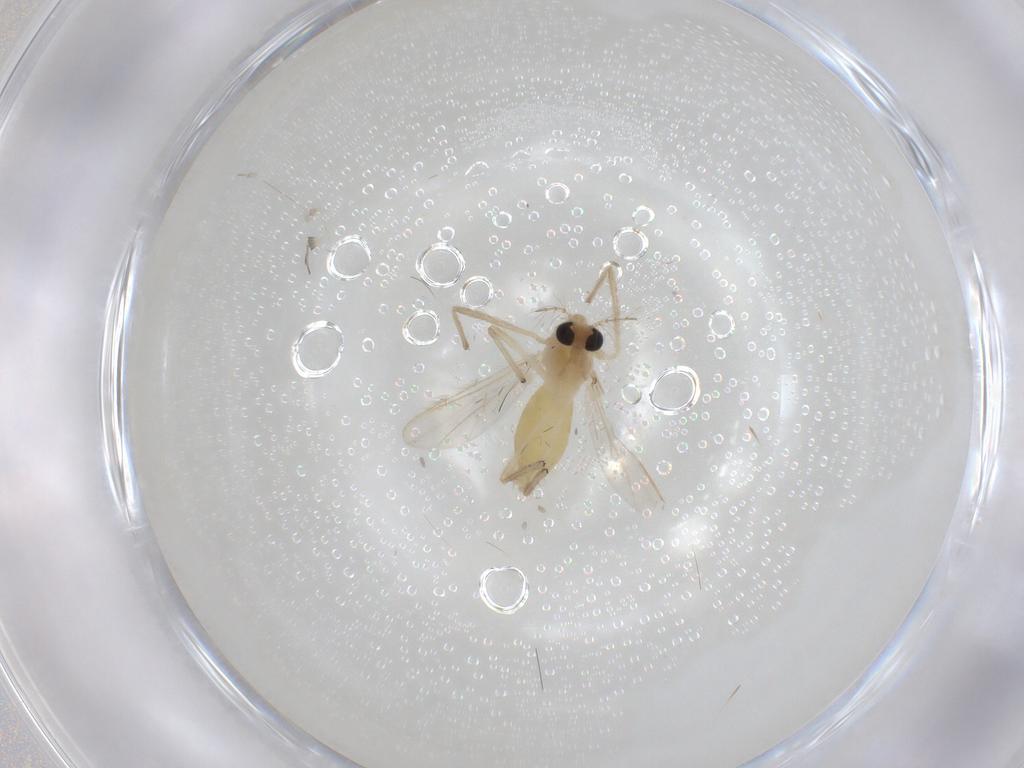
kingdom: Animalia
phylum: Arthropoda
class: Insecta
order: Diptera
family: Chironomidae
